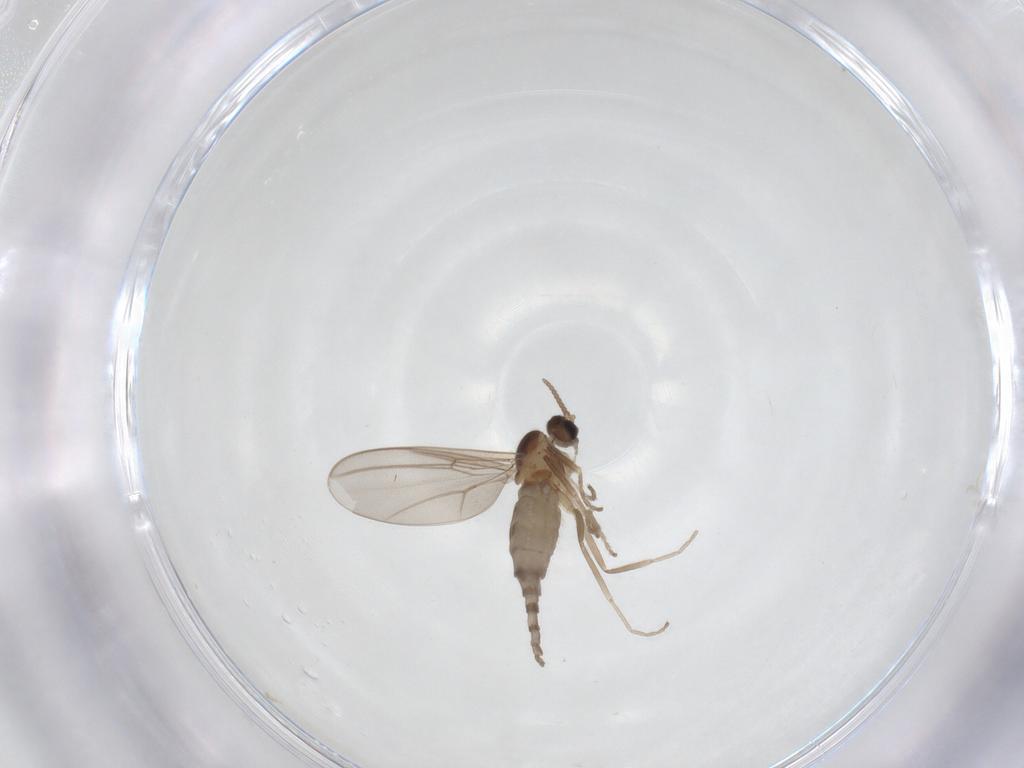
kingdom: Animalia
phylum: Arthropoda
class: Insecta
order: Diptera
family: Cecidomyiidae
